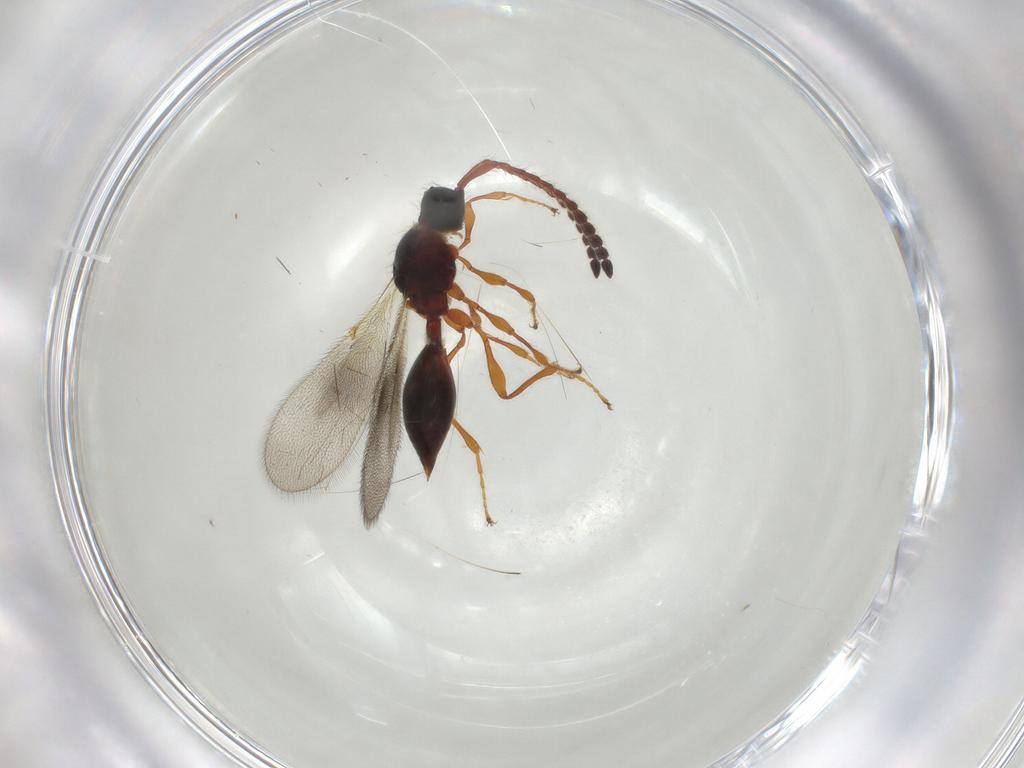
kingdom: Animalia
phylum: Arthropoda
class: Insecta
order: Hymenoptera
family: Diapriidae
